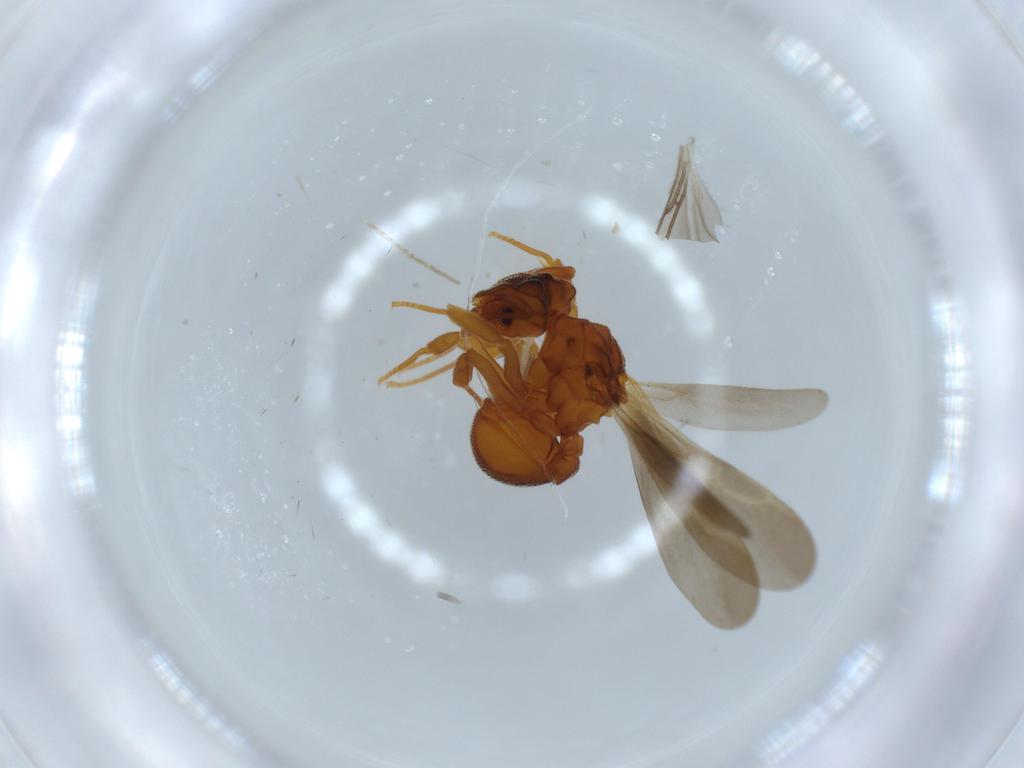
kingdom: Animalia
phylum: Arthropoda
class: Insecta
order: Hymenoptera
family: Formicidae
